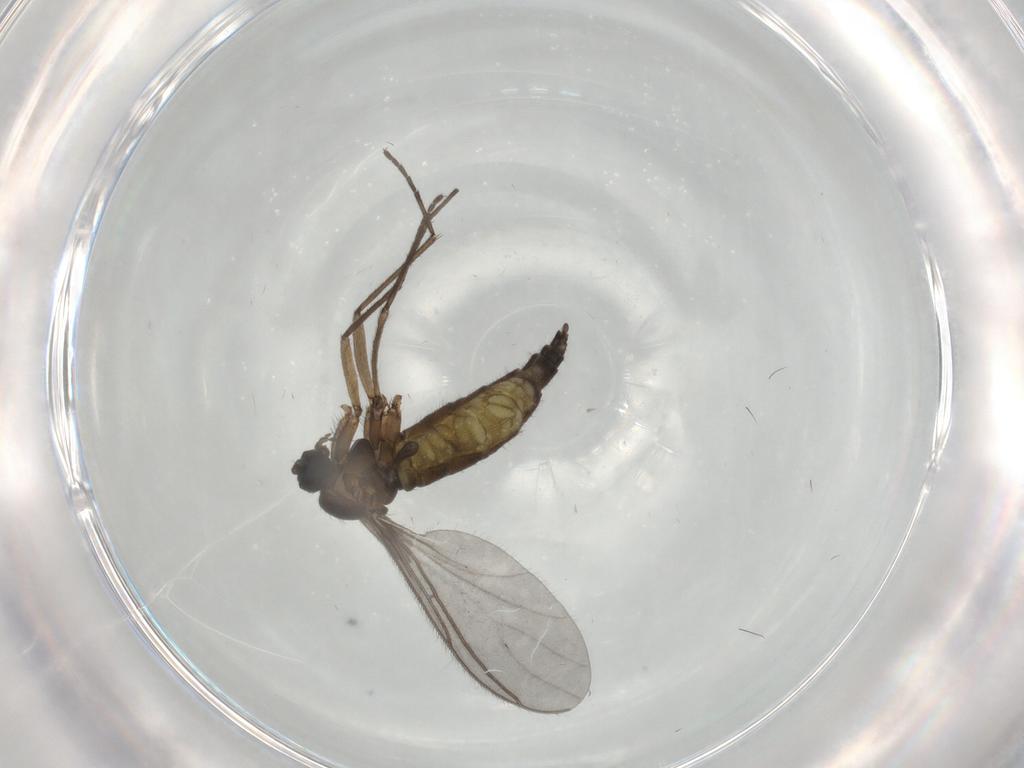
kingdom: Animalia
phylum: Arthropoda
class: Insecta
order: Diptera
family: Sciaridae
